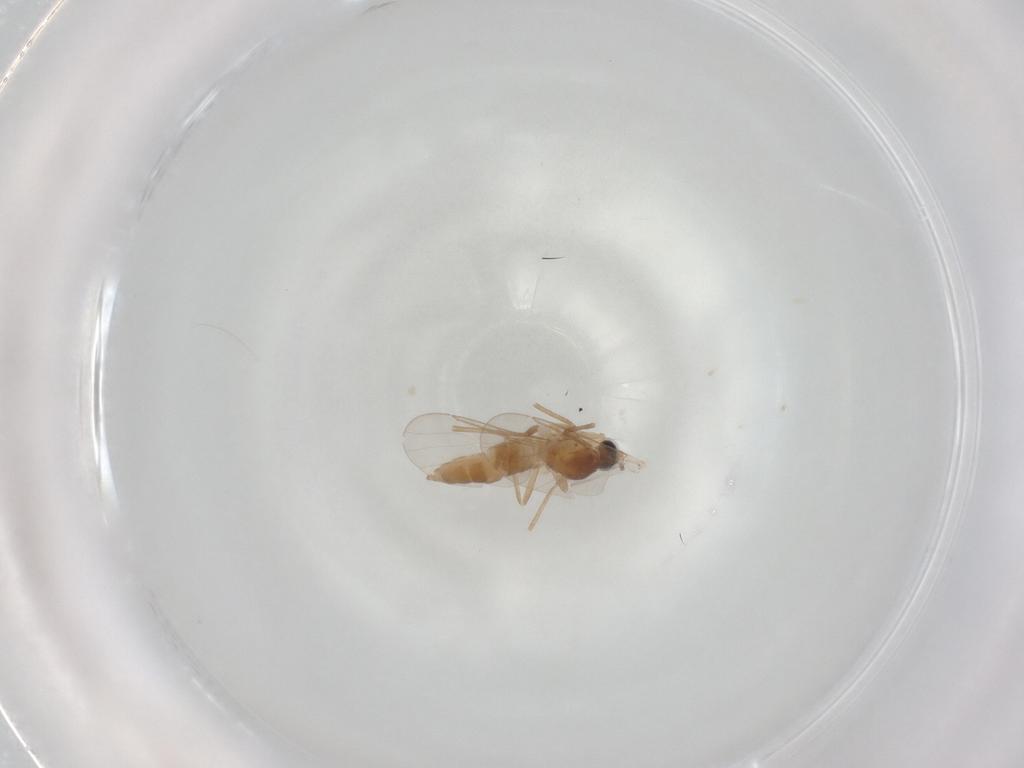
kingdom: Animalia
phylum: Arthropoda
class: Insecta
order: Diptera
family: Cecidomyiidae
